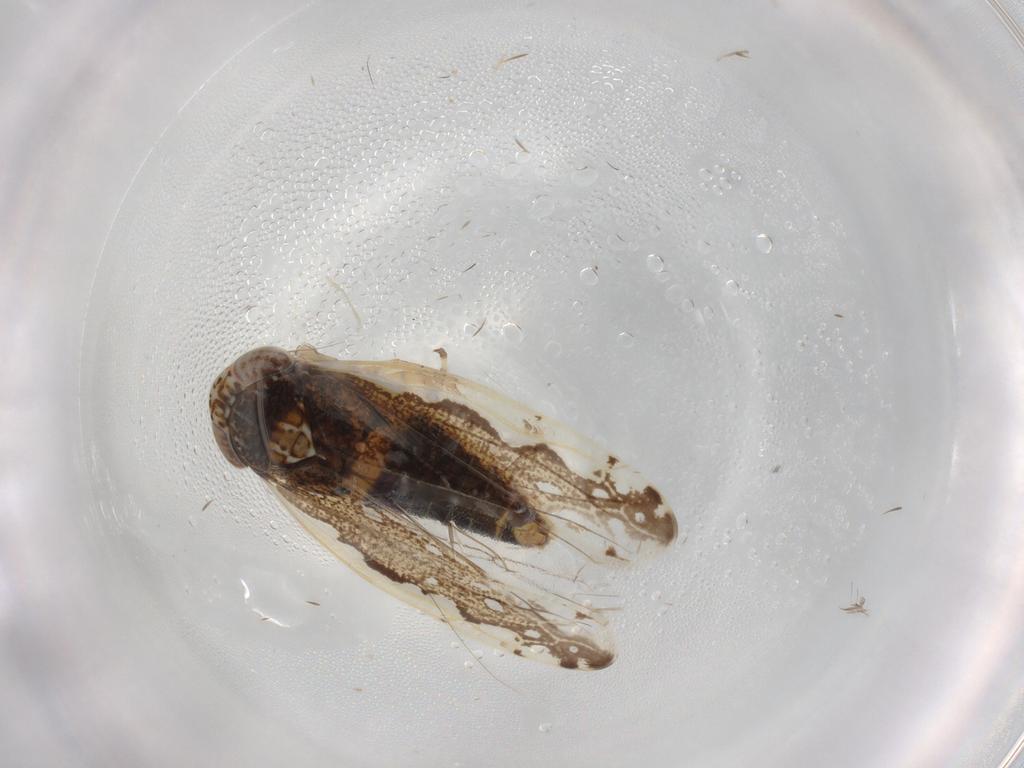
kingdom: Animalia
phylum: Arthropoda
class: Insecta
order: Hemiptera
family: Cicadellidae
